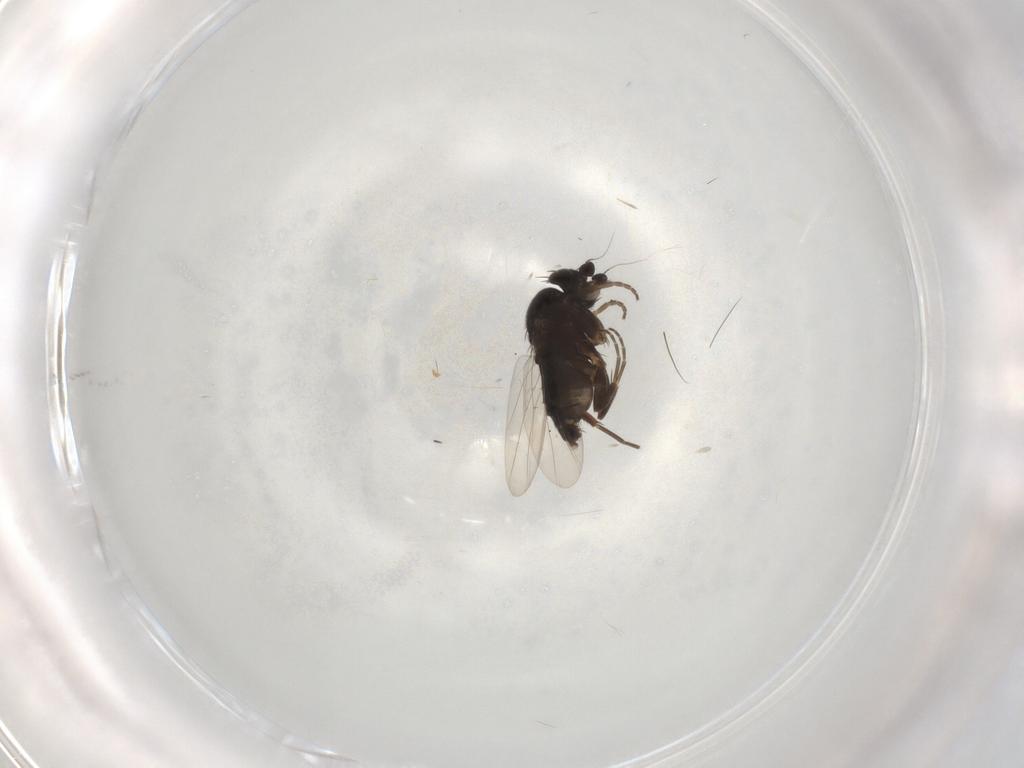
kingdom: Animalia
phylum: Arthropoda
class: Insecta
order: Diptera
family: Phoridae
